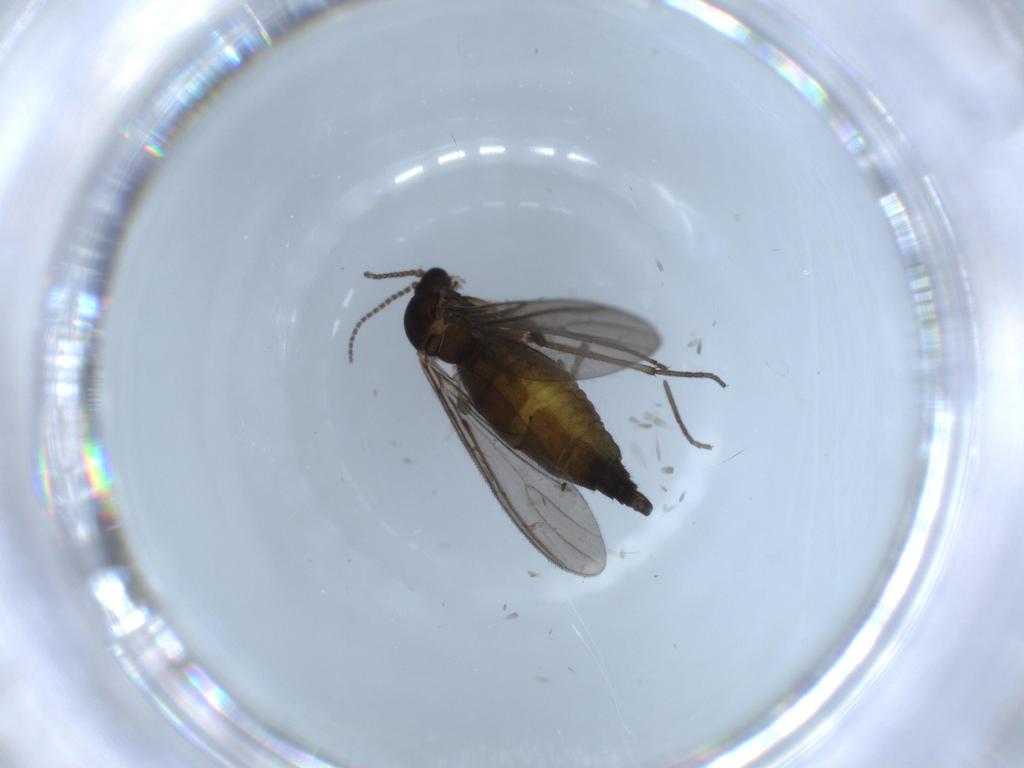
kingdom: Animalia
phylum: Arthropoda
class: Insecta
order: Diptera
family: Sciaridae
